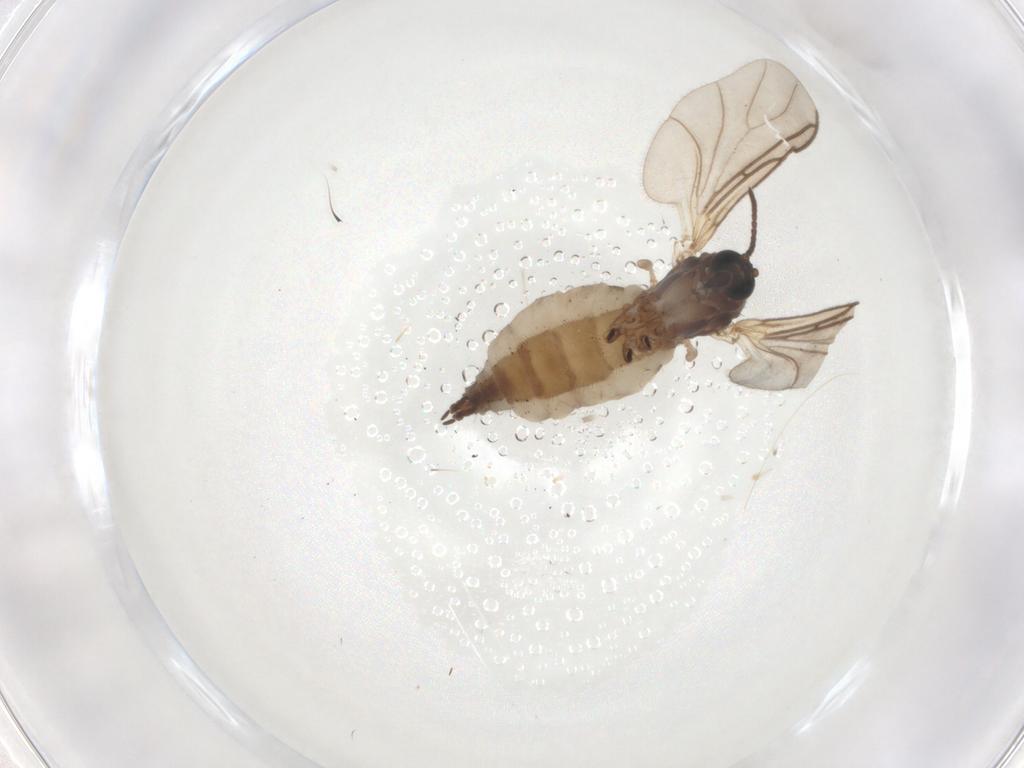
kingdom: Animalia
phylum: Arthropoda
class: Insecta
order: Diptera
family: Sciaridae
